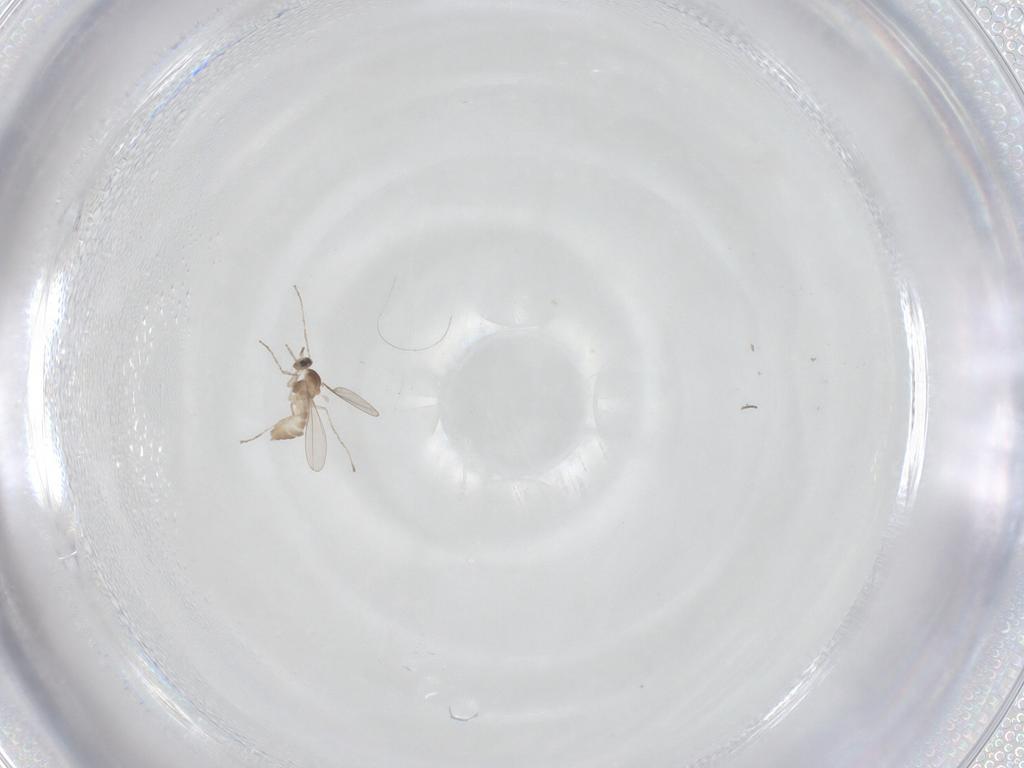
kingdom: Animalia
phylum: Arthropoda
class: Insecta
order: Diptera
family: Cecidomyiidae
